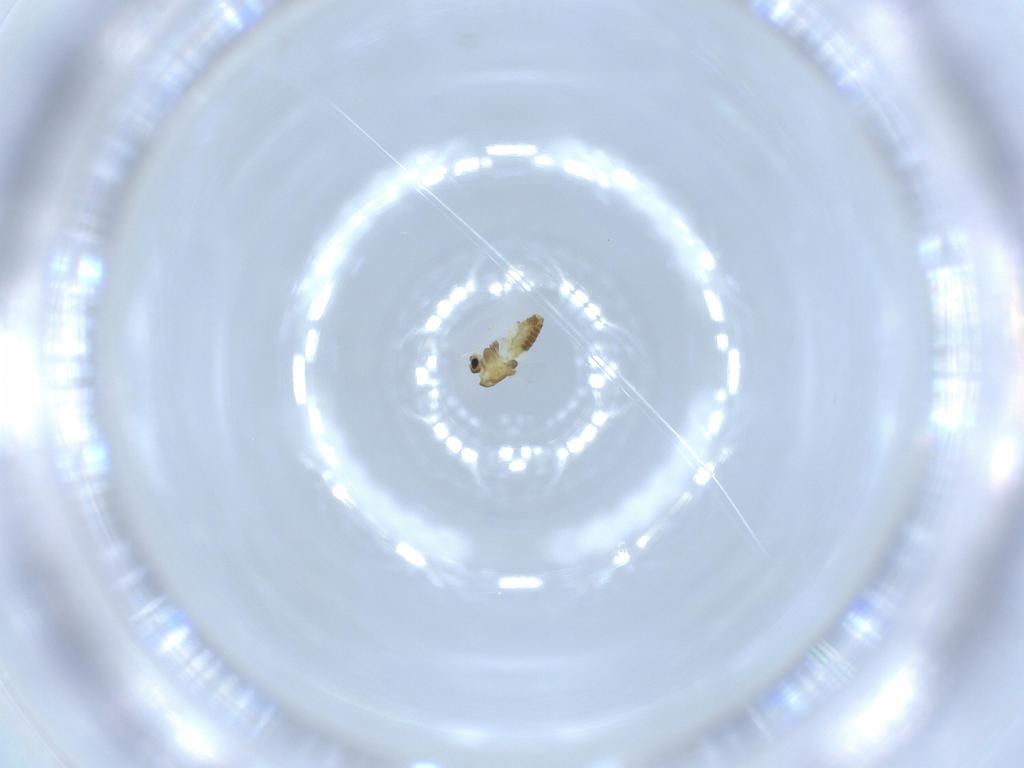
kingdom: Animalia
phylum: Arthropoda
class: Insecta
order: Diptera
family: Chironomidae
